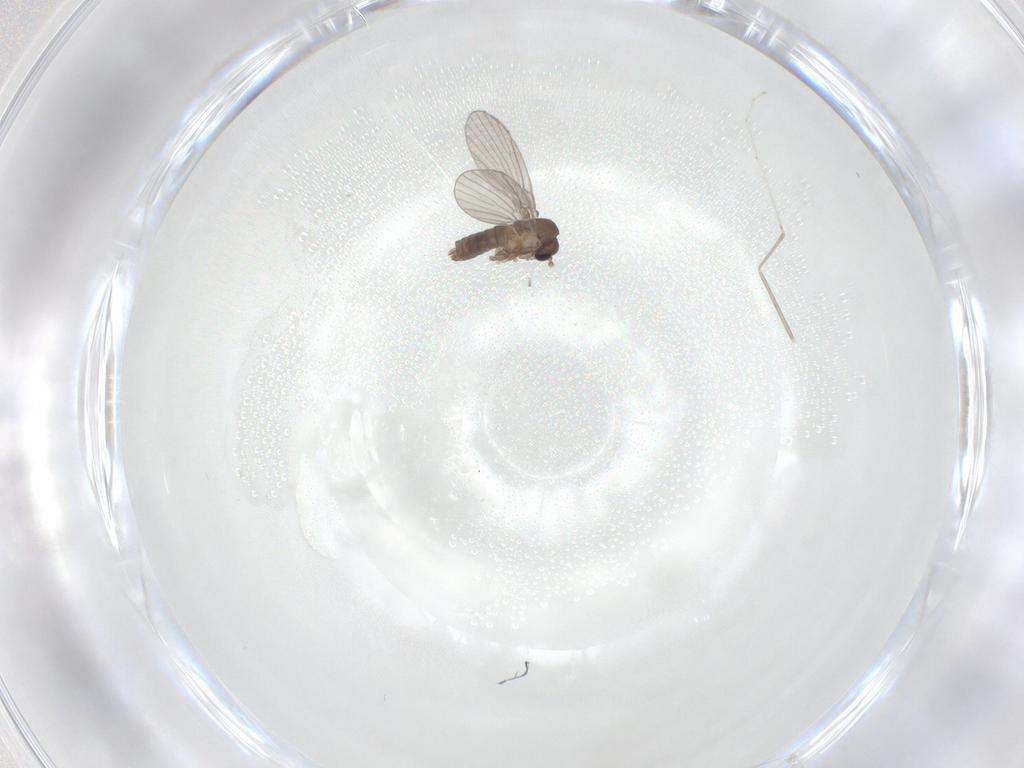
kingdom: Animalia
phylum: Arthropoda
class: Insecta
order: Diptera
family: Cecidomyiidae
